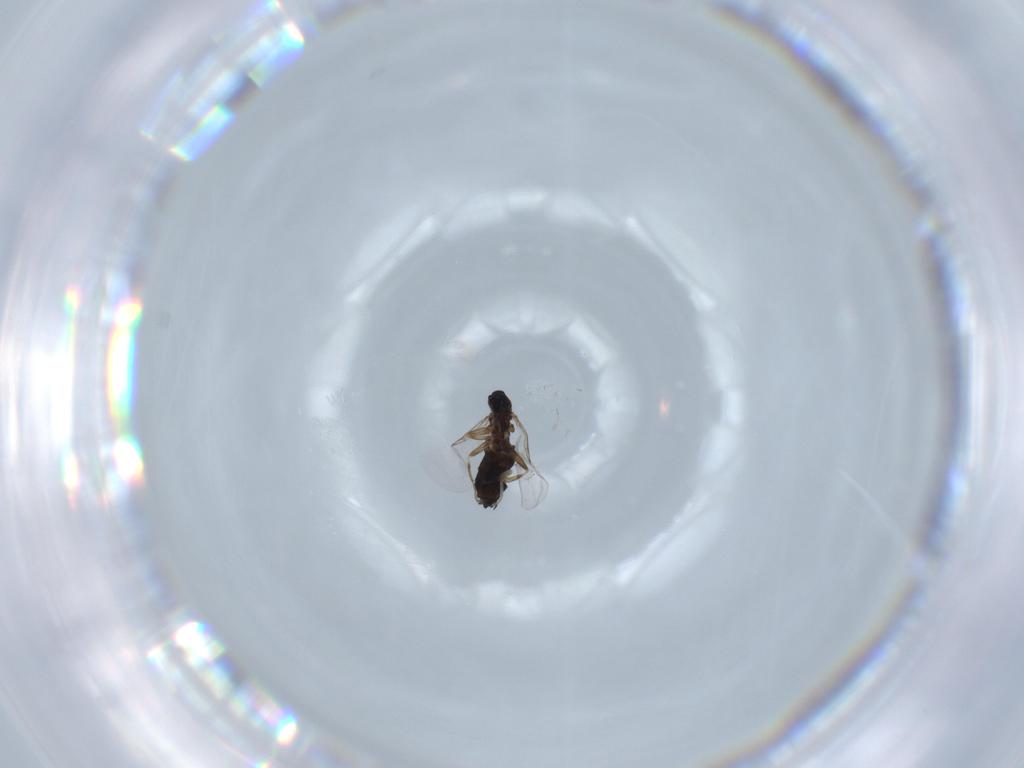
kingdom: Animalia
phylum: Arthropoda
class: Insecta
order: Diptera
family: Scatopsidae
